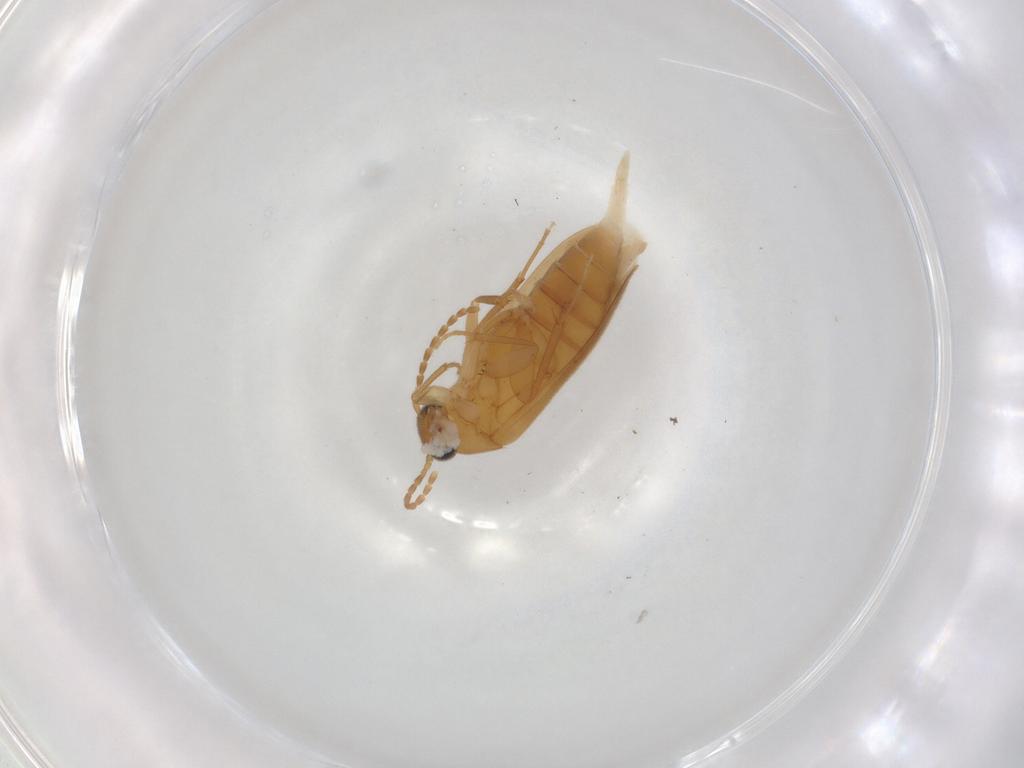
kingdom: Animalia
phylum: Arthropoda
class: Insecta
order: Coleoptera
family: Scraptiidae
